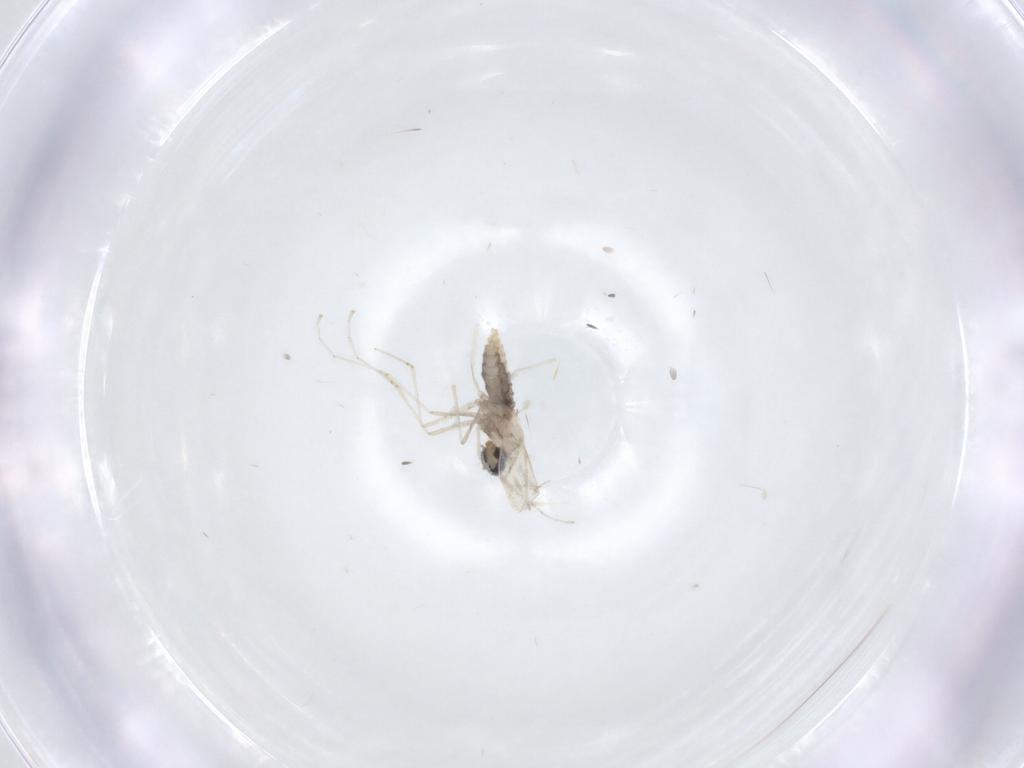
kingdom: Animalia
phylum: Arthropoda
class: Insecta
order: Diptera
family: Cecidomyiidae
